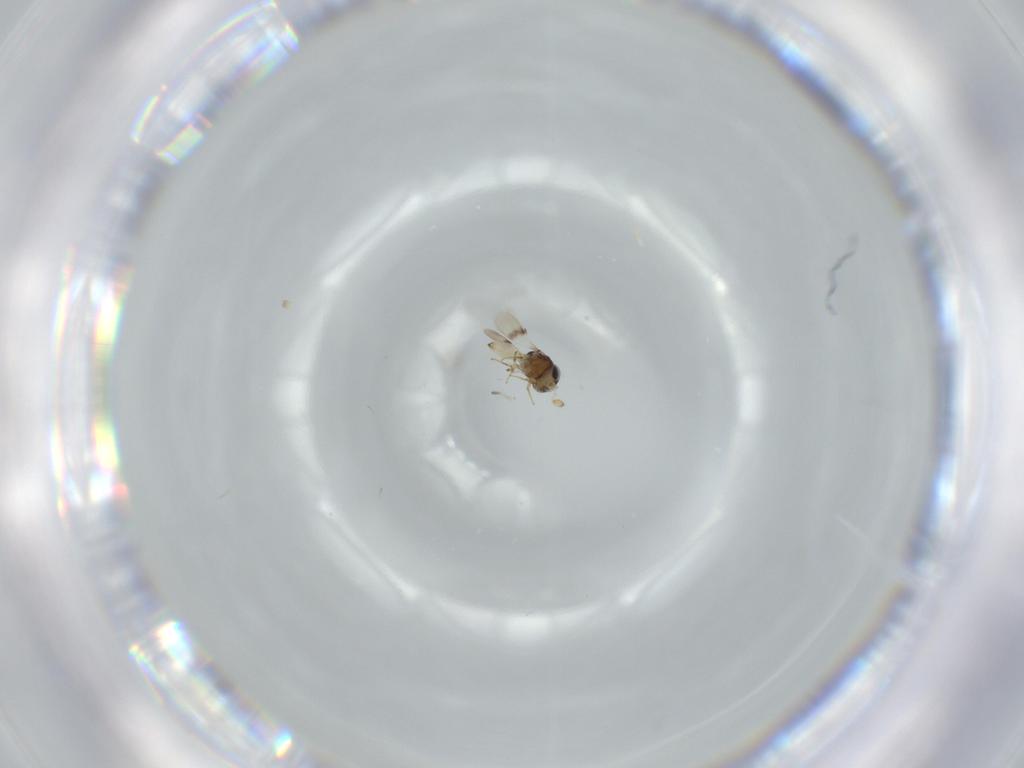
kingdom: Animalia
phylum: Arthropoda
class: Insecta
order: Hymenoptera
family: Scelionidae
